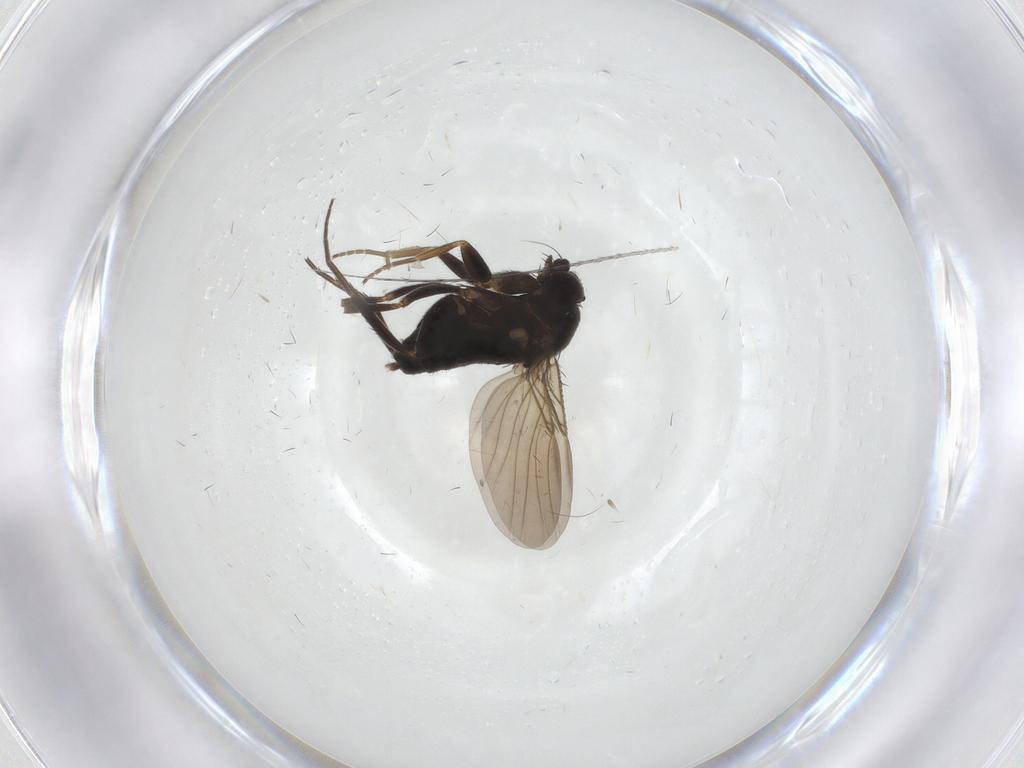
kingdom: Animalia
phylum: Arthropoda
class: Insecta
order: Diptera
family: Phoridae
